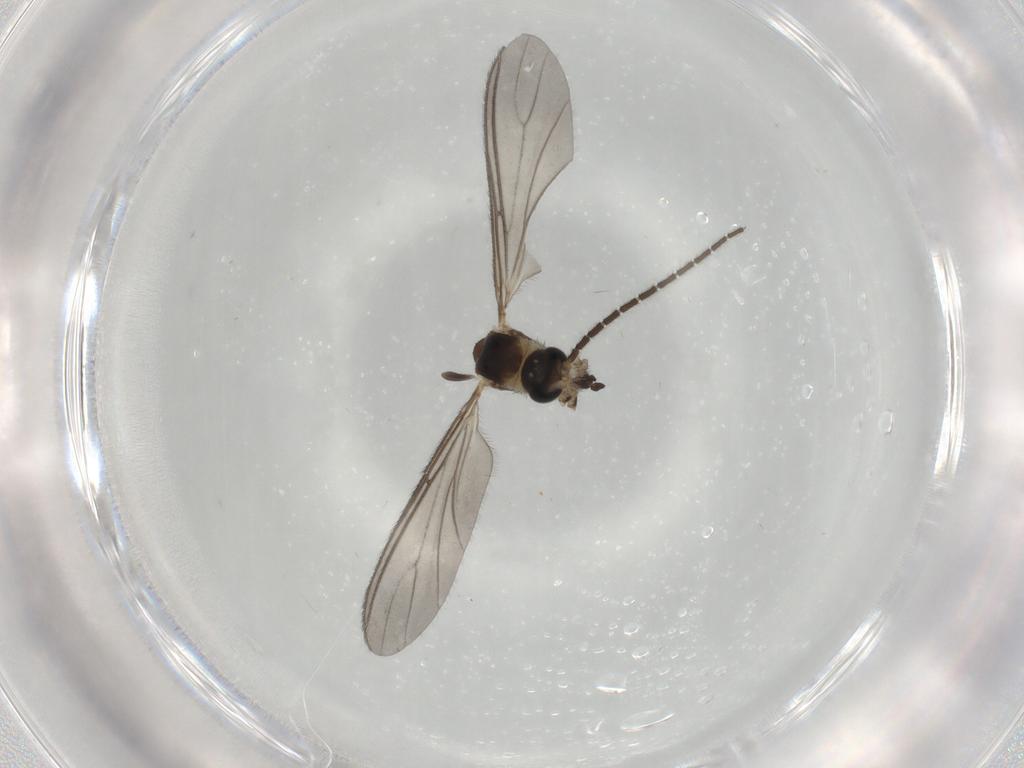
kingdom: Animalia
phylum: Arthropoda
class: Insecta
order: Diptera
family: Sciaridae
